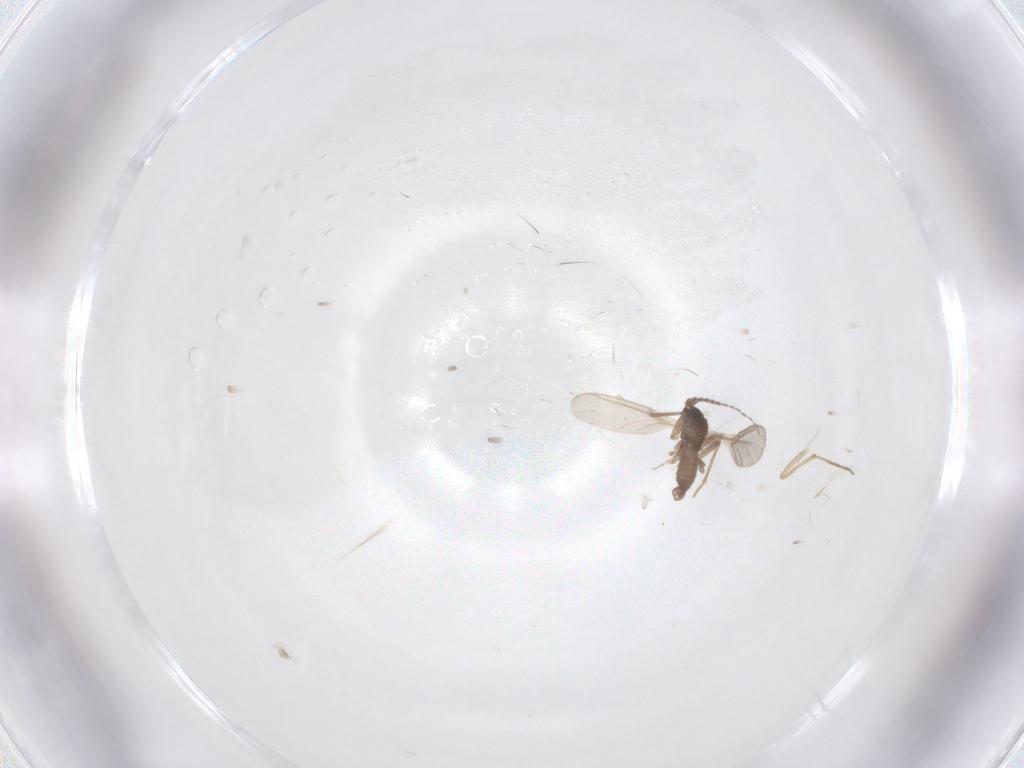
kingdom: Animalia
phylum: Arthropoda
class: Insecta
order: Diptera
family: Sciaridae
